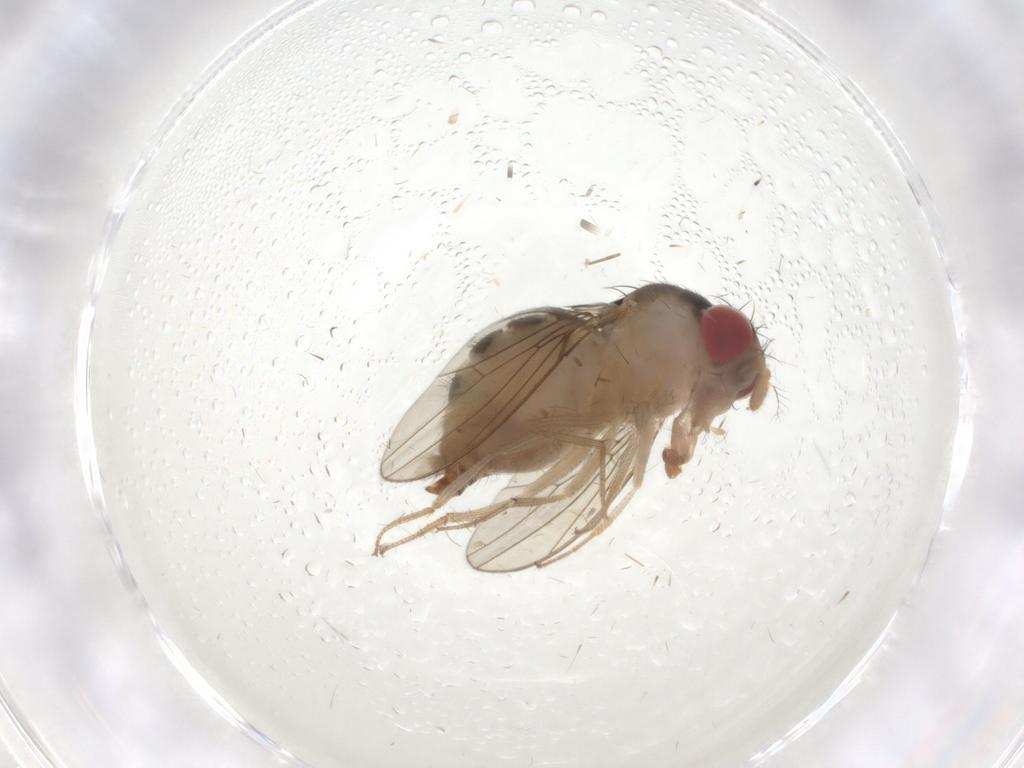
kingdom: Animalia
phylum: Arthropoda
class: Insecta
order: Diptera
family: Drosophilidae
